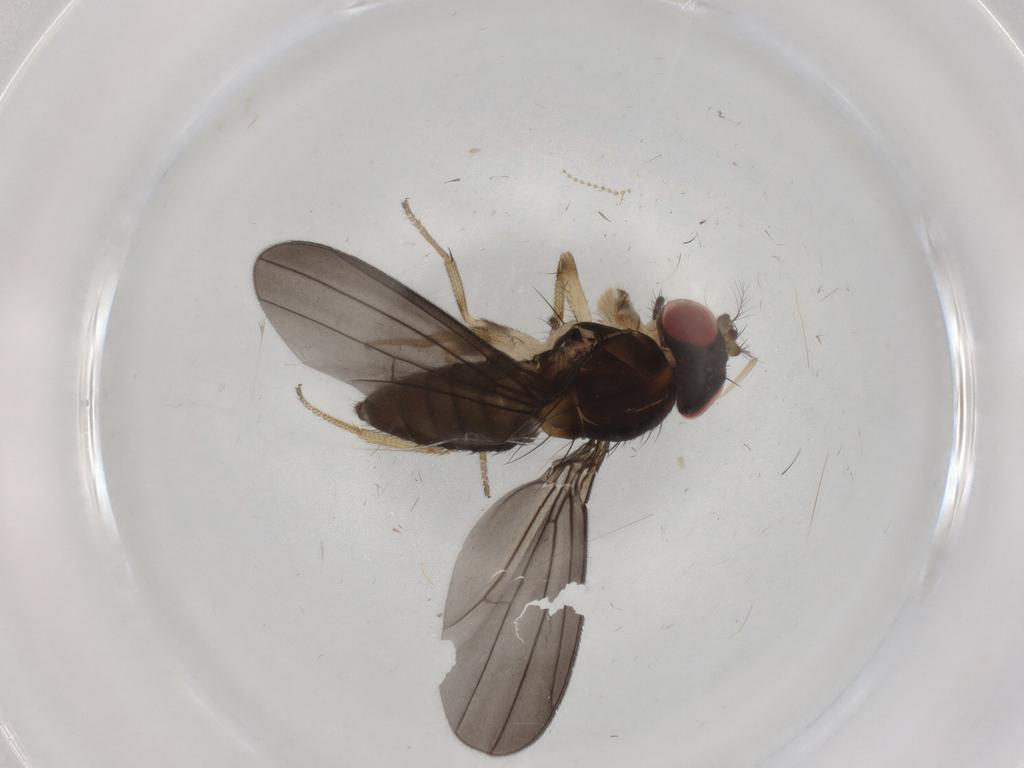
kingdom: Animalia
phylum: Arthropoda
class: Insecta
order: Diptera
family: Drosophilidae
